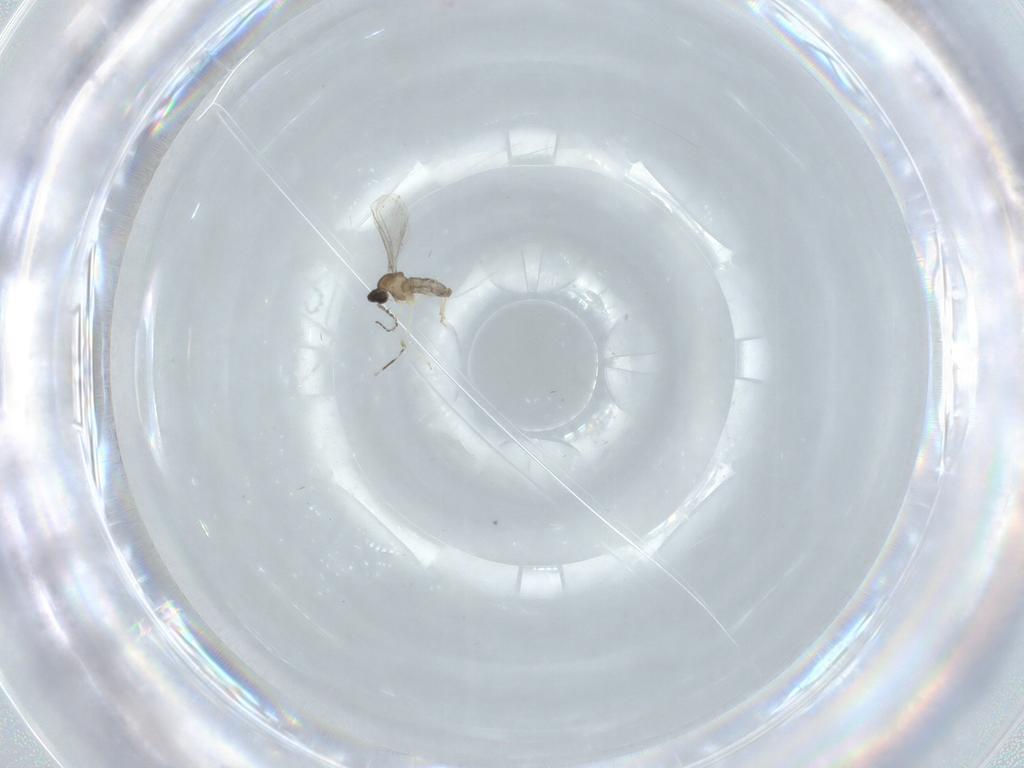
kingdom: Animalia
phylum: Arthropoda
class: Insecta
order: Diptera
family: Cecidomyiidae
